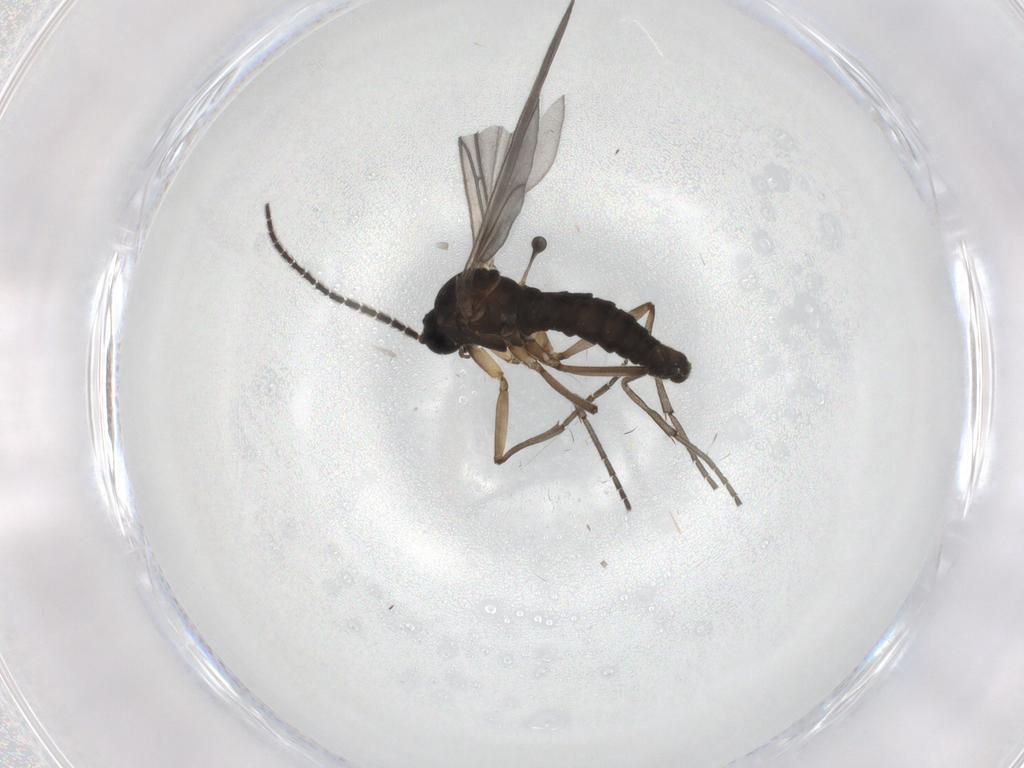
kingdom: Animalia
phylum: Arthropoda
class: Insecta
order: Diptera
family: Sciaridae
